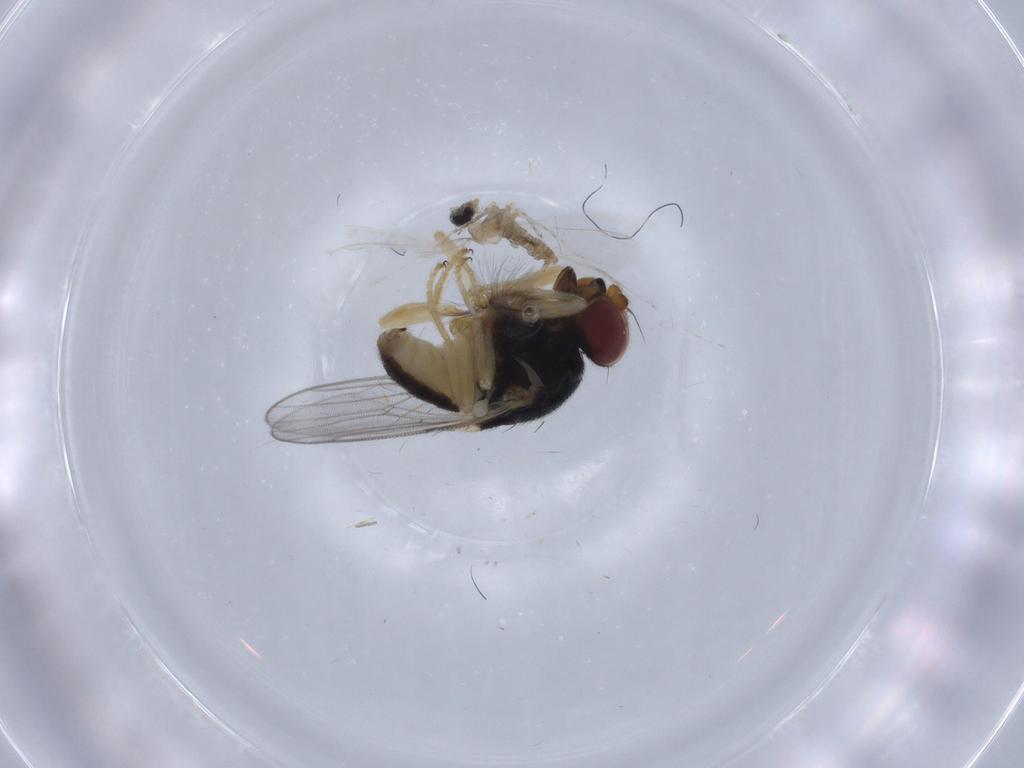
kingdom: Animalia
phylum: Arthropoda
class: Insecta
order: Diptera
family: Chloropidae
